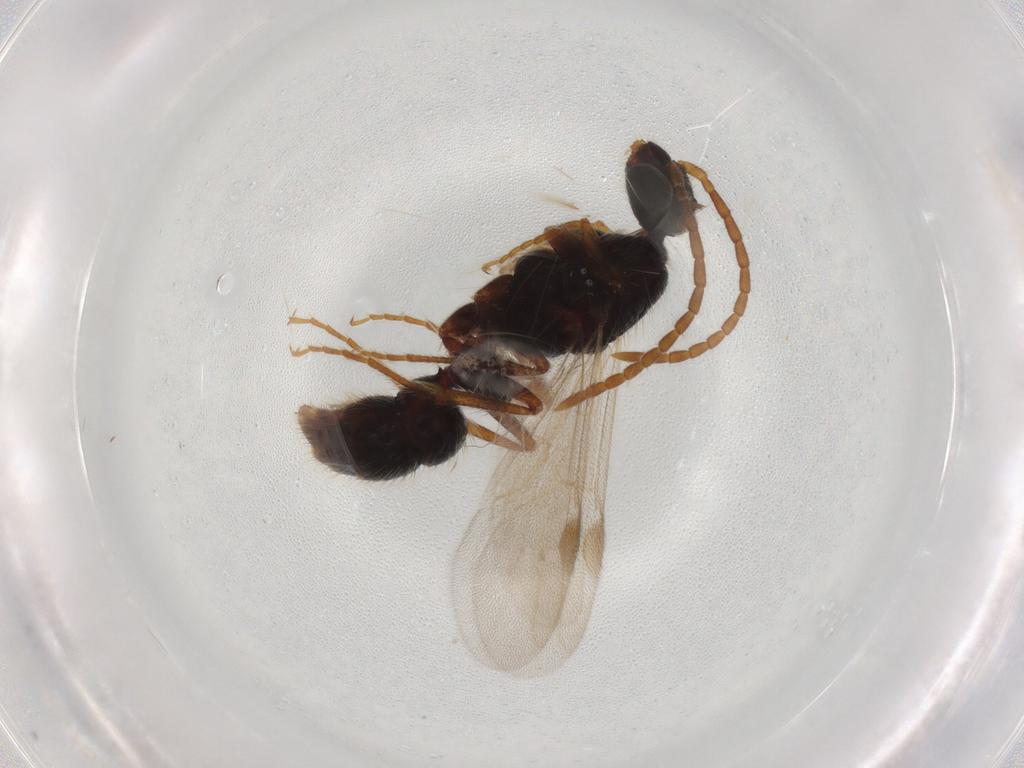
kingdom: Animalia
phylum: Arthropoda
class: Insecta
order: Hymenoptera
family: Formicidae
